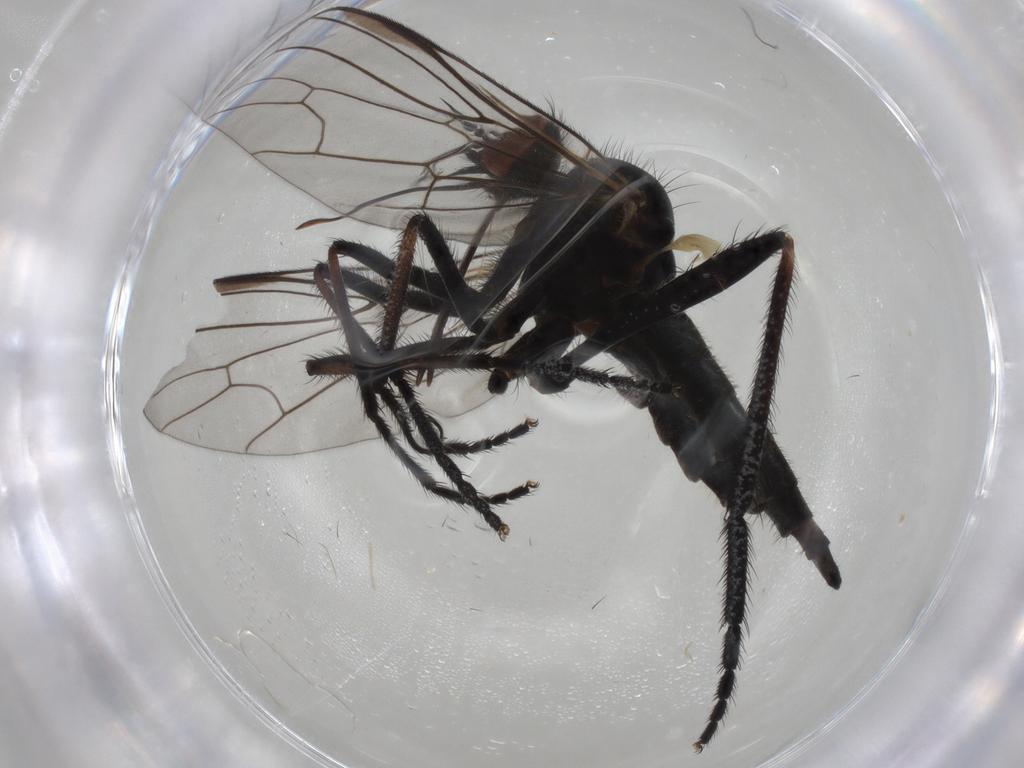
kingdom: Animalia
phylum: Arthropoda
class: Insecta
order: Diptera
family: Empididae
